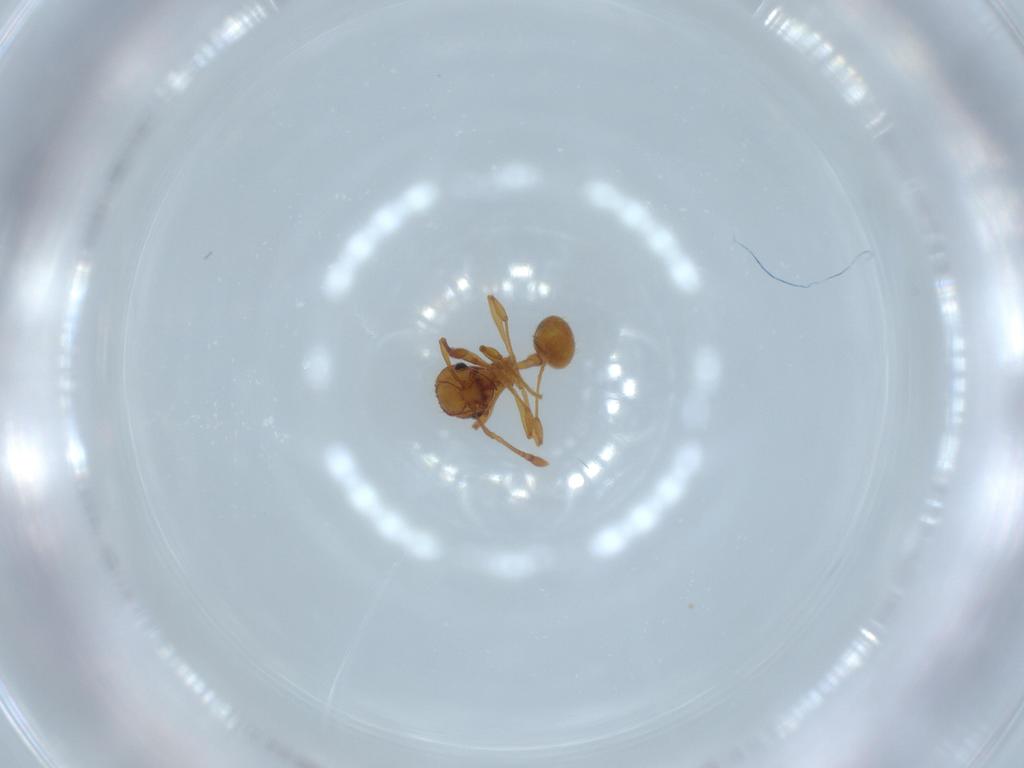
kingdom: Animalia
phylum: Arthropoda
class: Insecta
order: Hymenoptera
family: Formicidae
